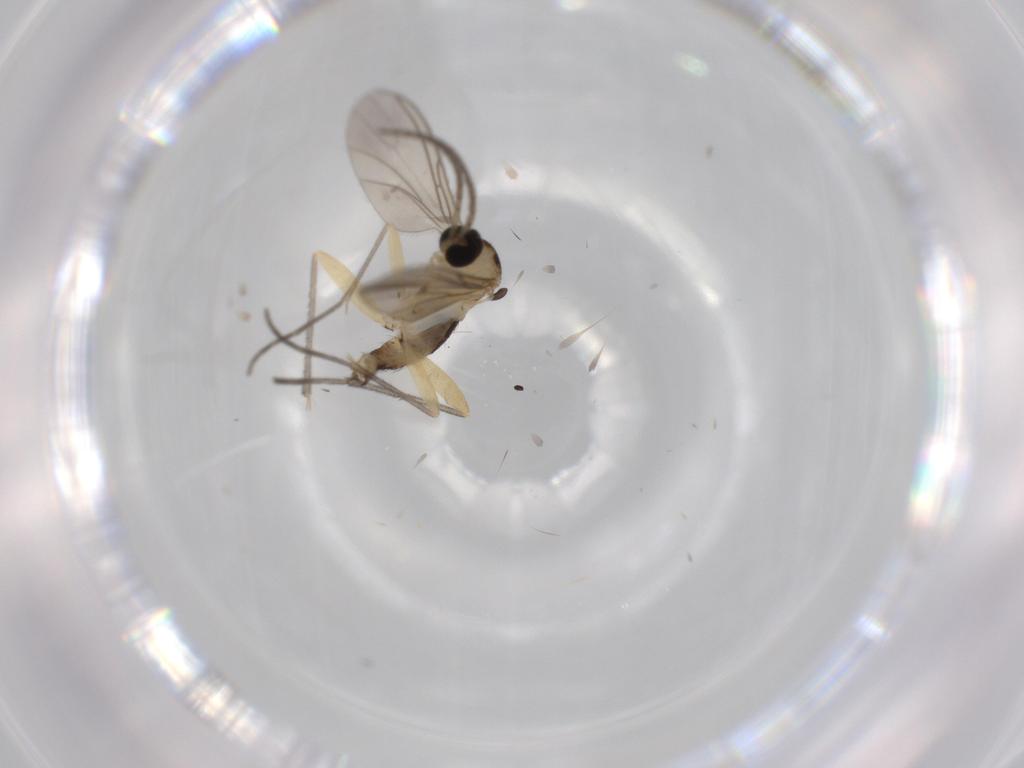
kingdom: Animalia
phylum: Arthropoda
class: Insecta
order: Diptera
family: Sciaridae
